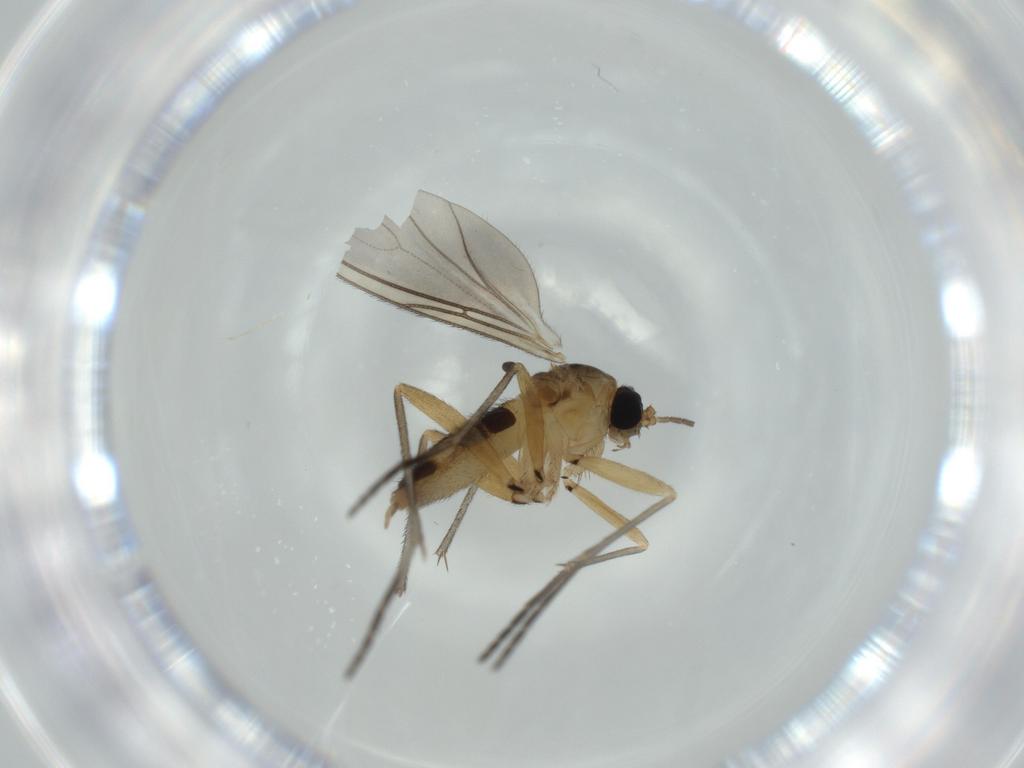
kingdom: Animalia
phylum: Arthropoda
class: Insecta
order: Diptera
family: Sciaridae
